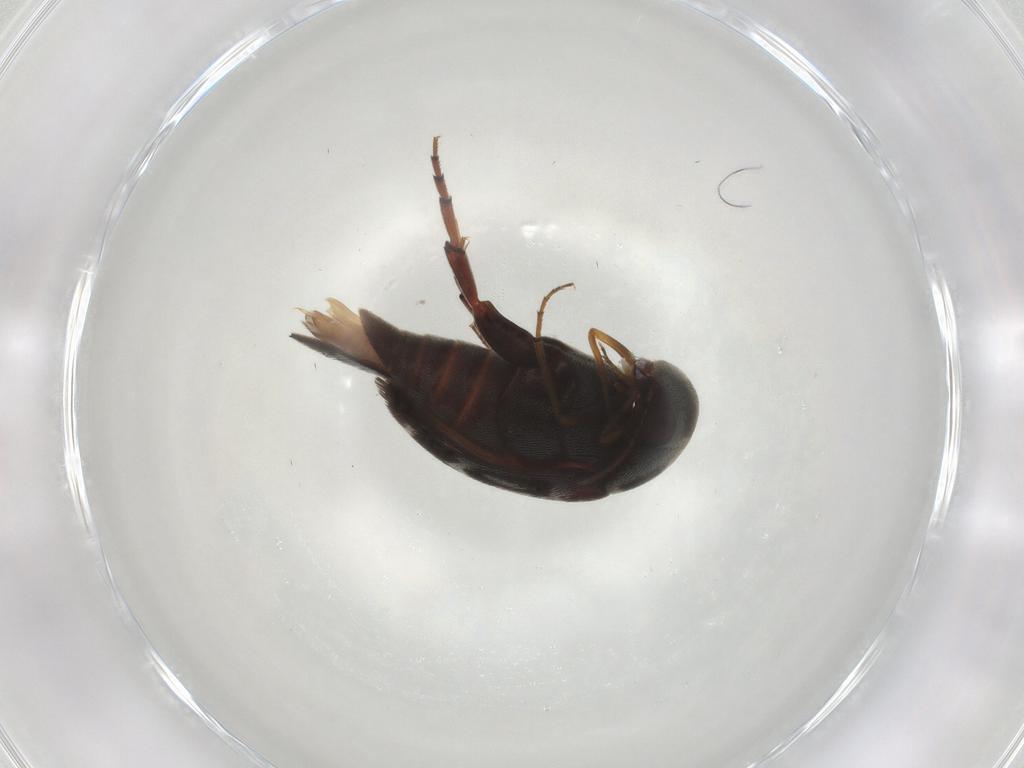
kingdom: Animalia
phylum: Arthropoda
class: Insecta
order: Coleoptera
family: Mordellidae
